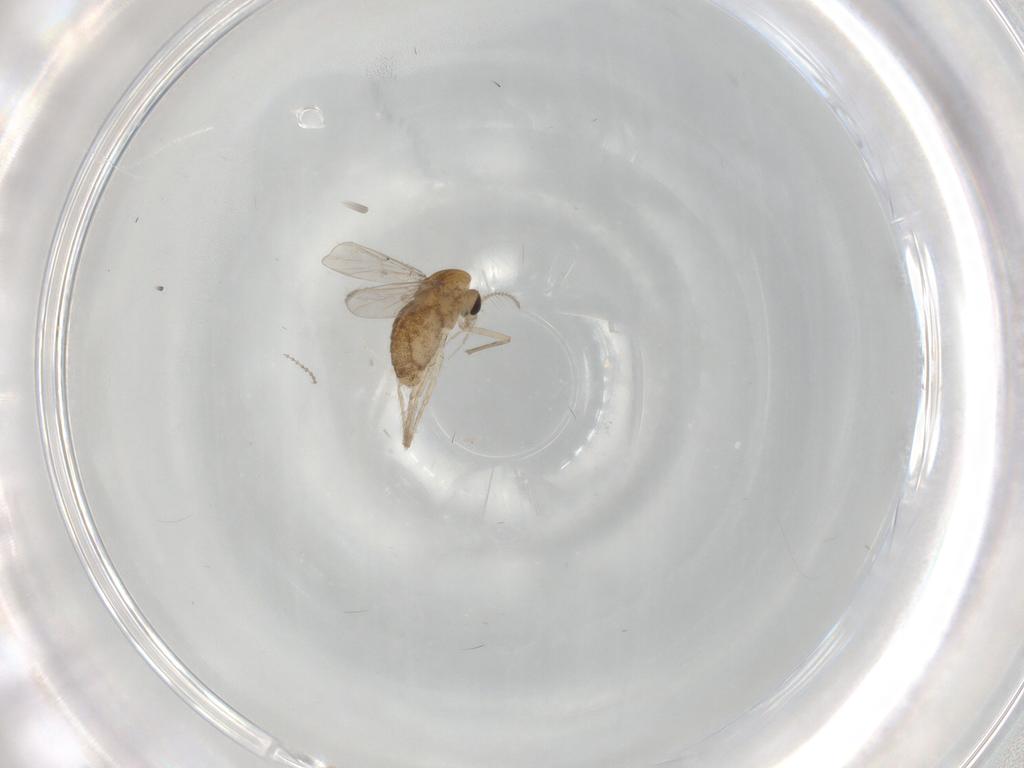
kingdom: Animalia
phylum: Arthropoda
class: Insecta
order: Diptera
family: Chironomidae
